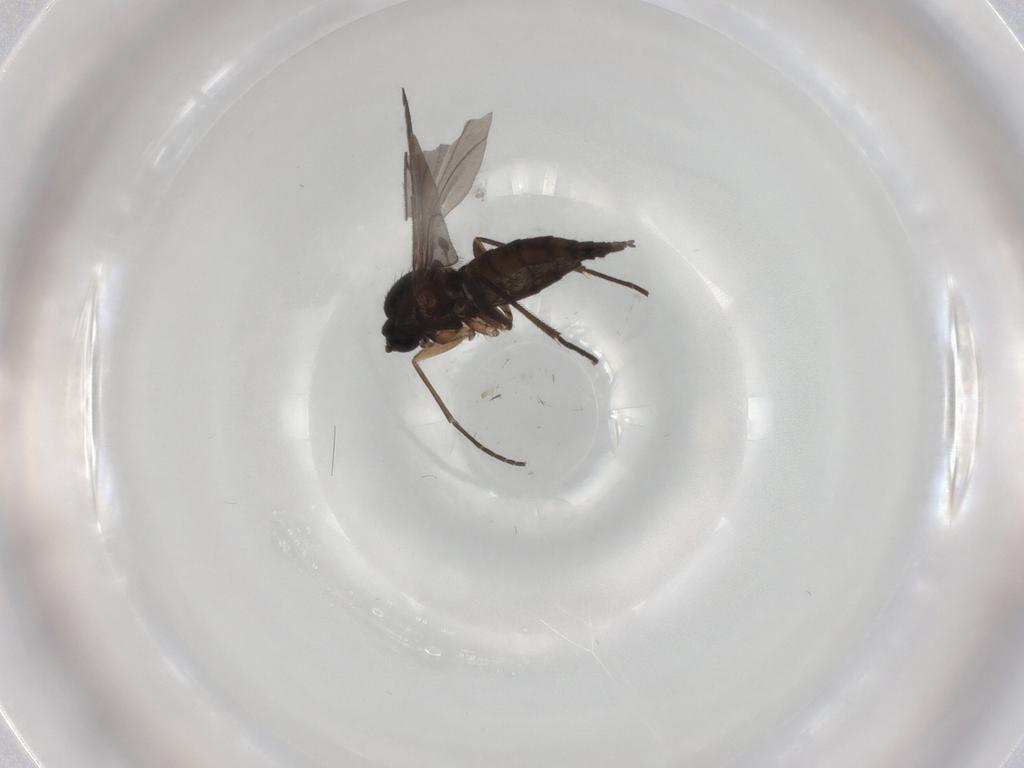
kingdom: Animalia
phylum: Arthropoda
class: Insecta
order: Diptera
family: Sciaridae
